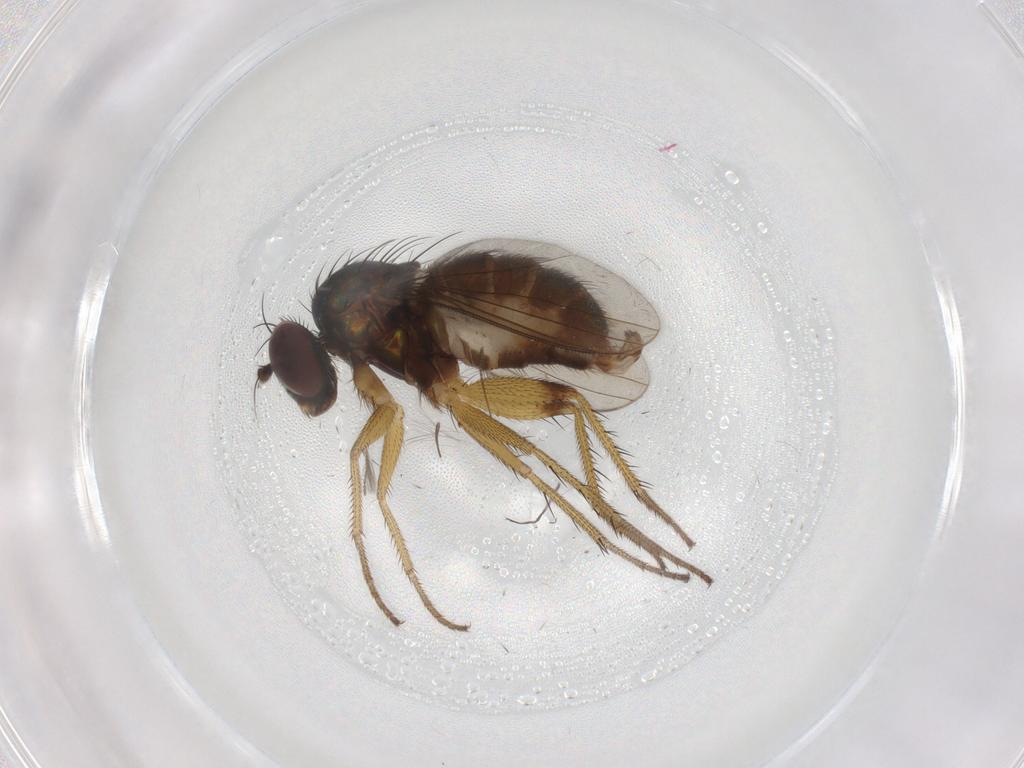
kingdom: Animalia
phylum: Arthropoda
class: Insecta
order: Diptera
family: Dolichopodidae
